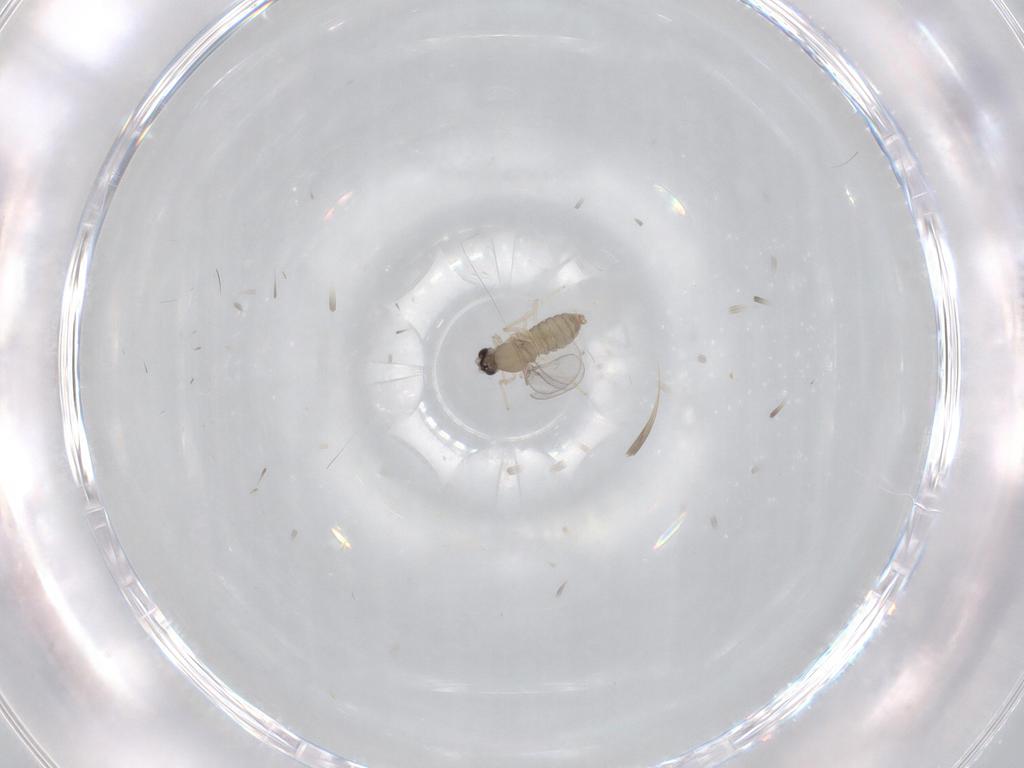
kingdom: Animalia
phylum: Arthropoda
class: Insecta
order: Diptera
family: Cecidomyiidae
